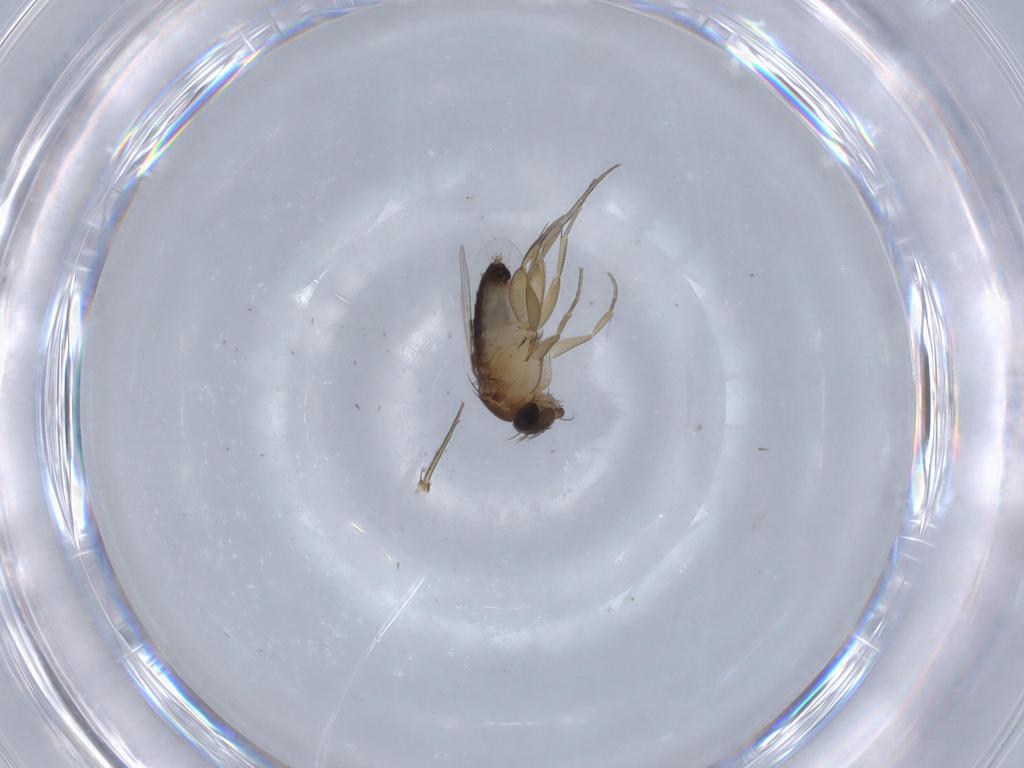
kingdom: Animalia
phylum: Arthropoda
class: Insecta
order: Diptera
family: Phoridae
